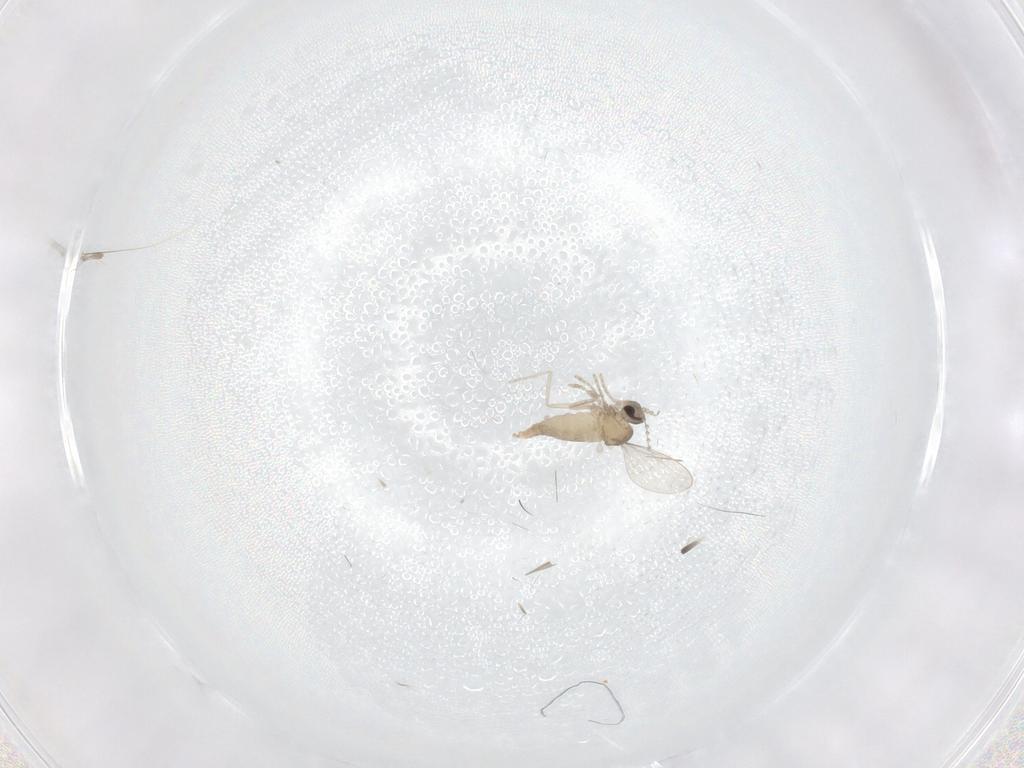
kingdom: Animalia
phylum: Arthropoda
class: Insecta
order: Diptera
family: Cecidomyiidae
